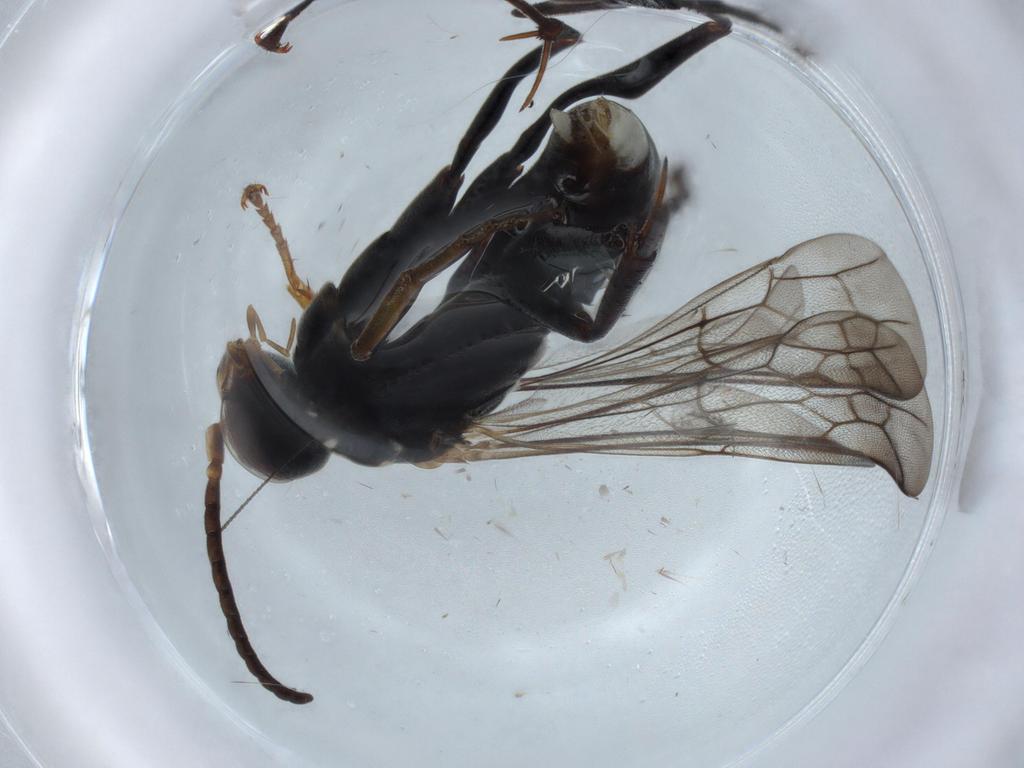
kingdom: Animalia
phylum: Arthropoda
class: Insecta
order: Hymenoptera
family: Pompilidae
